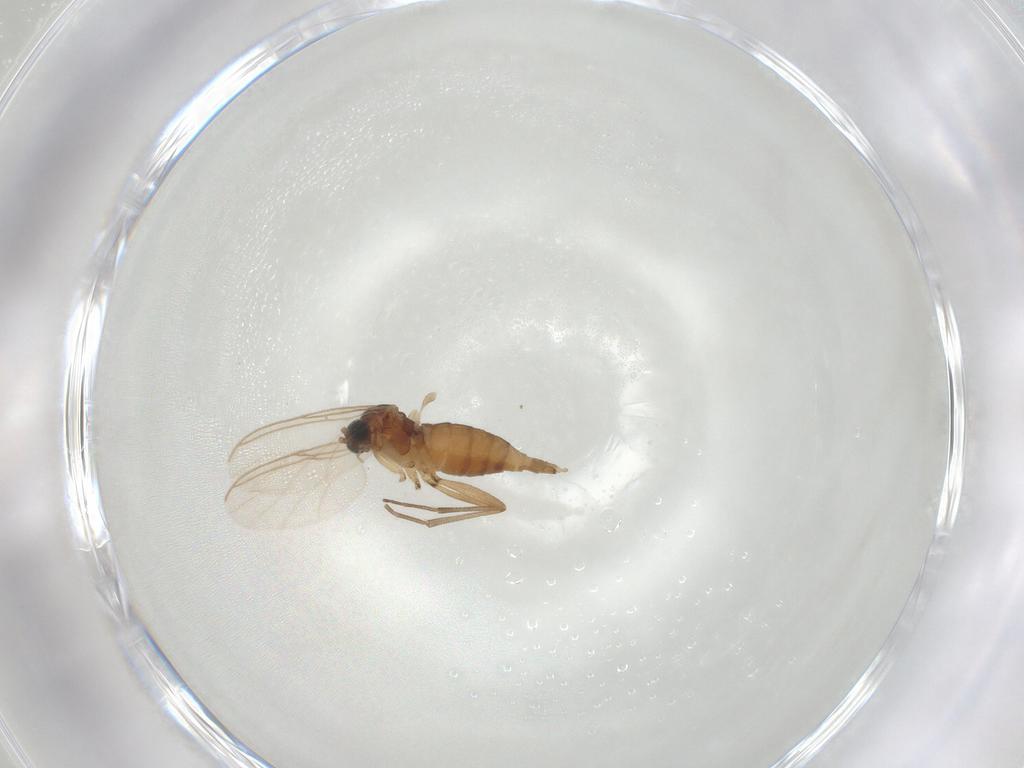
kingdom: Animalia
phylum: Arthropoda
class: Insecta
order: Diptera
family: Sciaridae
